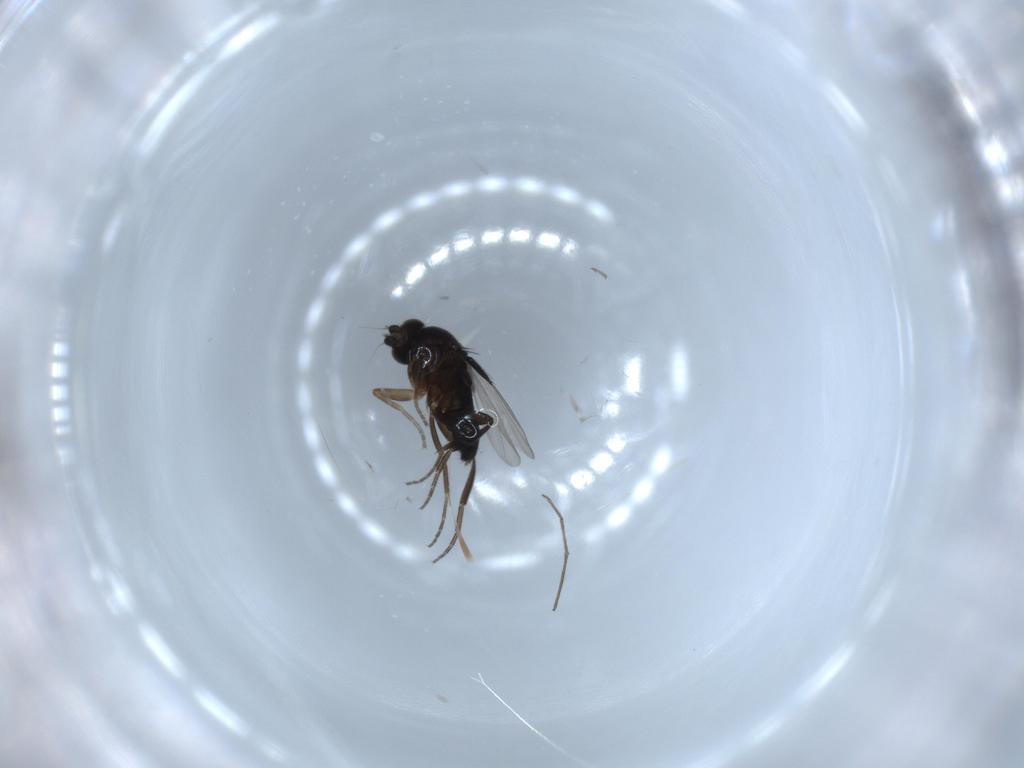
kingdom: Animalia
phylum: Arthropoda
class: Insecta
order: Diptera
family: Phoridae
